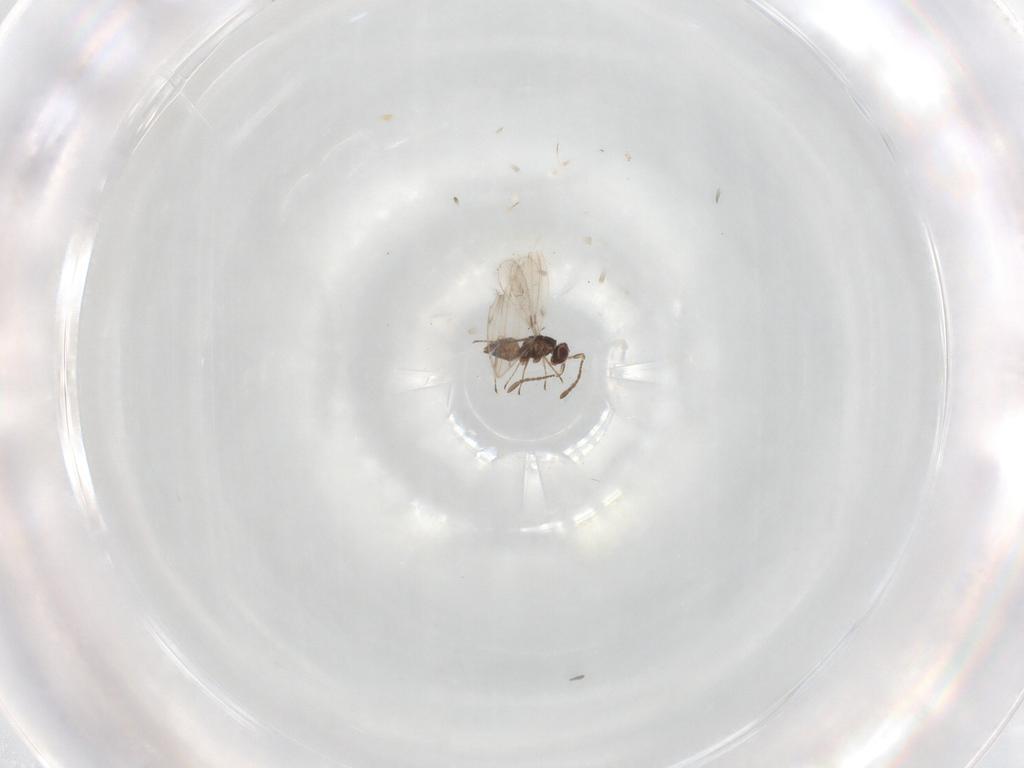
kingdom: Animalia
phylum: Arthropoda
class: Insecta
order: Hymenoptera
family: Mymaridae
